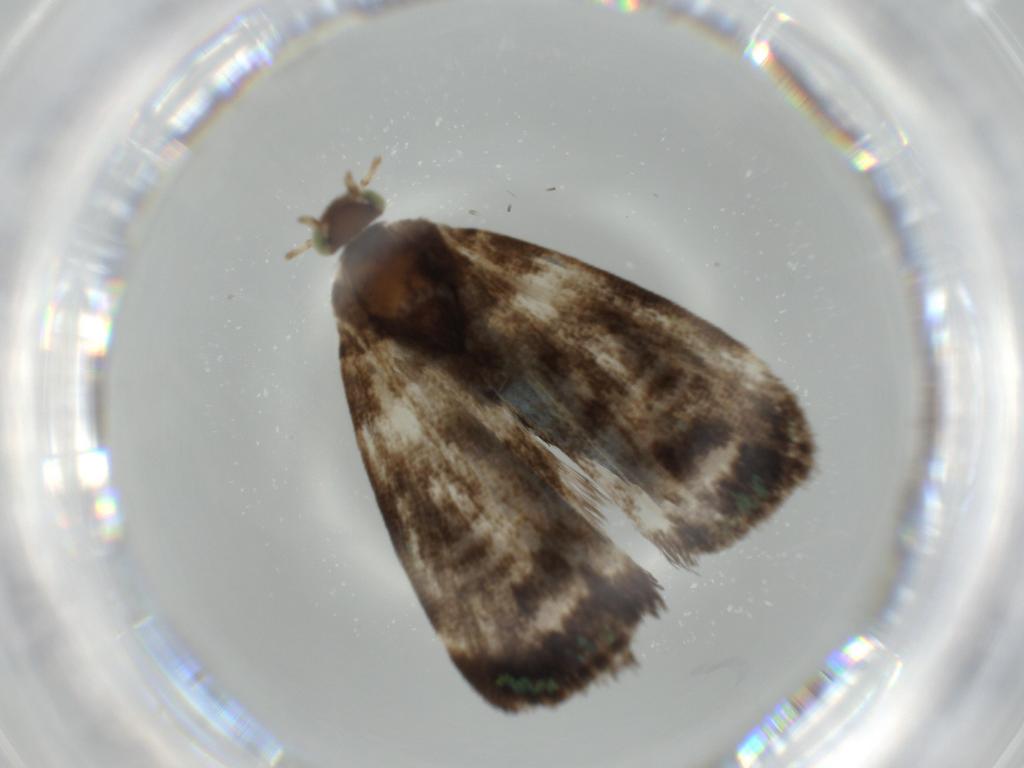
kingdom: Animalia
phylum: Arthropoda
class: Insecta
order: Lepidoptera
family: Choreutidae
